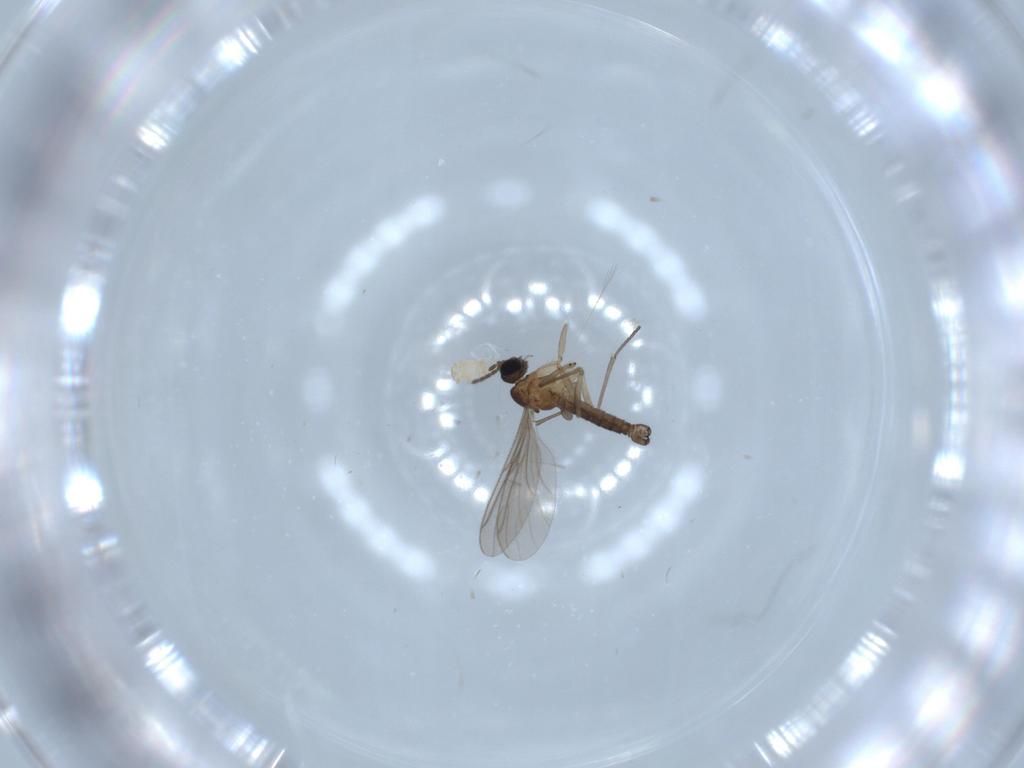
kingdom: Animalia
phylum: Arthropoda
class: Insecta
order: Diptera
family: Sciaridae
